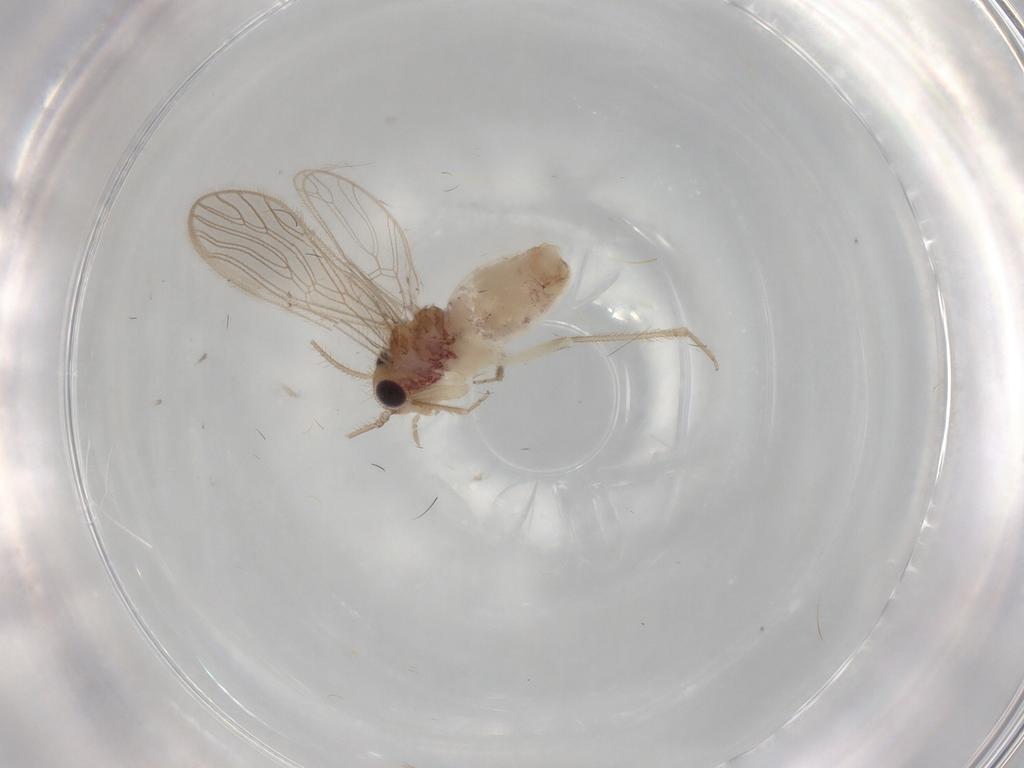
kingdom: Animalia
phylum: Arthropoda
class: Insecta
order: Psocodea
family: Cladiopsocidae
